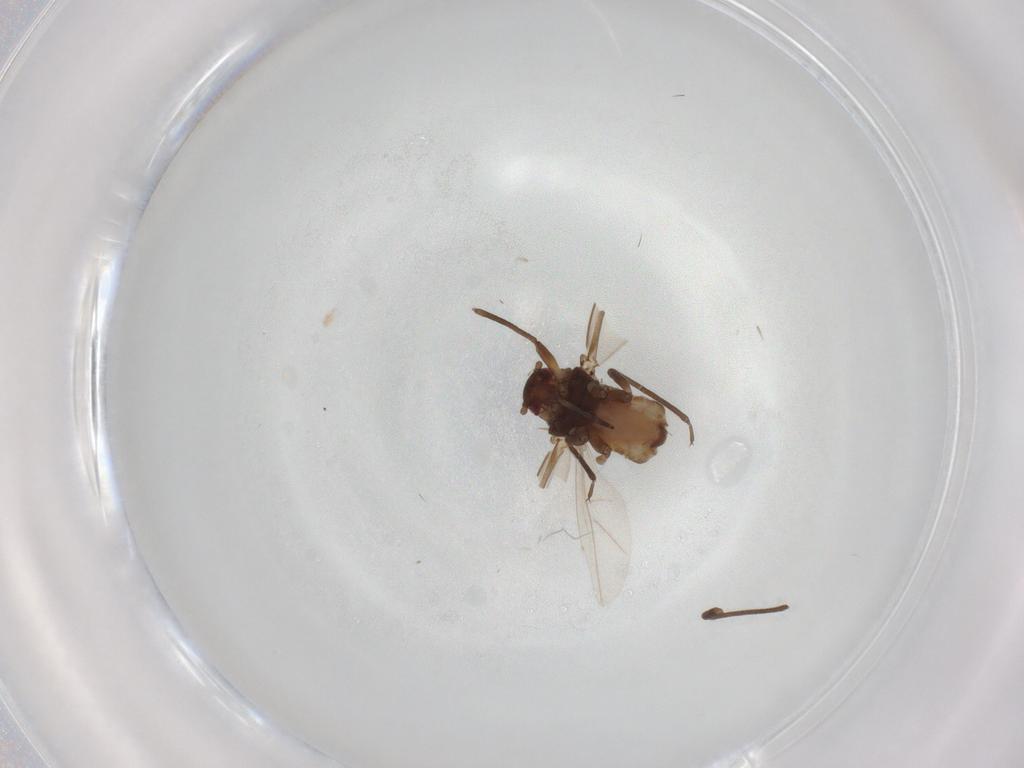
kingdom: Animalia
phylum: Arthropoda
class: Insecta
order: Hemiptera
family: Aphididae
